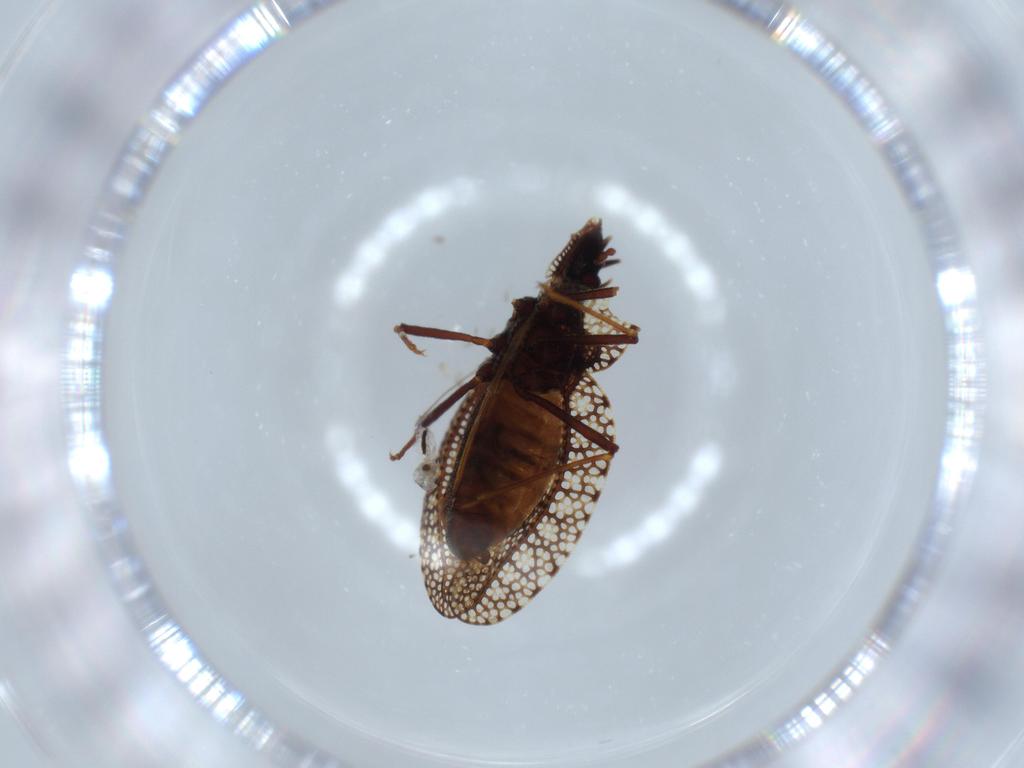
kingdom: Animalia
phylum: Arthropoda
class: Insecta
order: Hemiptera
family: Tingidae
